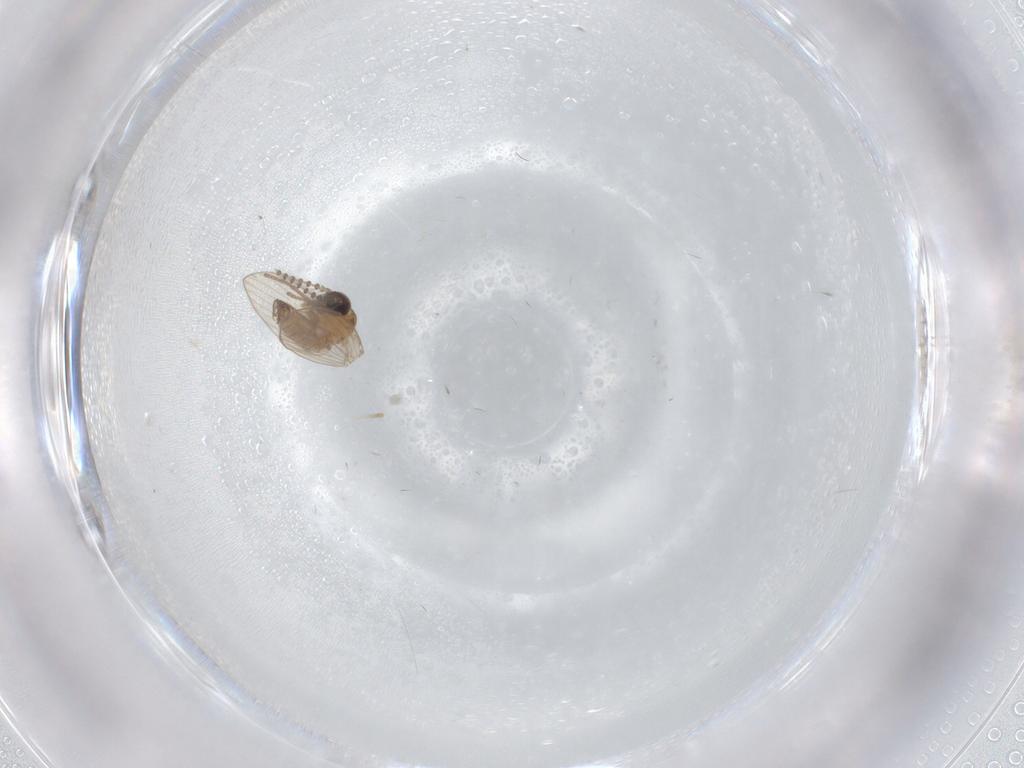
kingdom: Animalia
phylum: Arthropoda
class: Insecta
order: Diptera
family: Psychodidae
